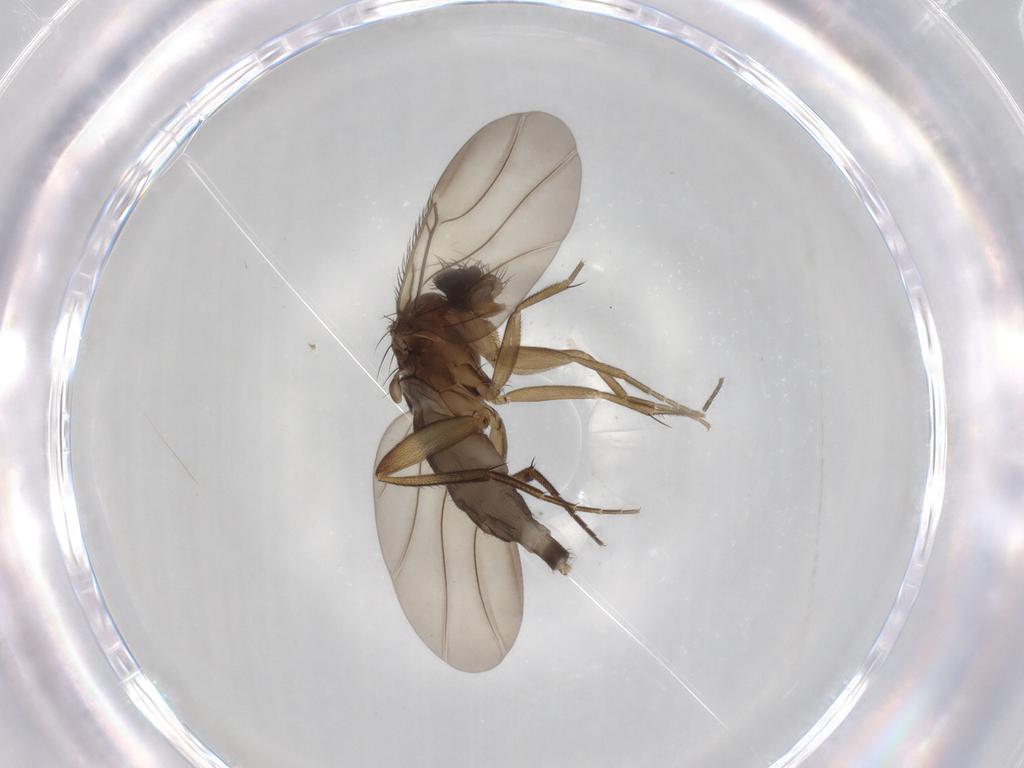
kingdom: Animalia
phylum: Arthropoda
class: Insecta
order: Diptera
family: Phoridae
